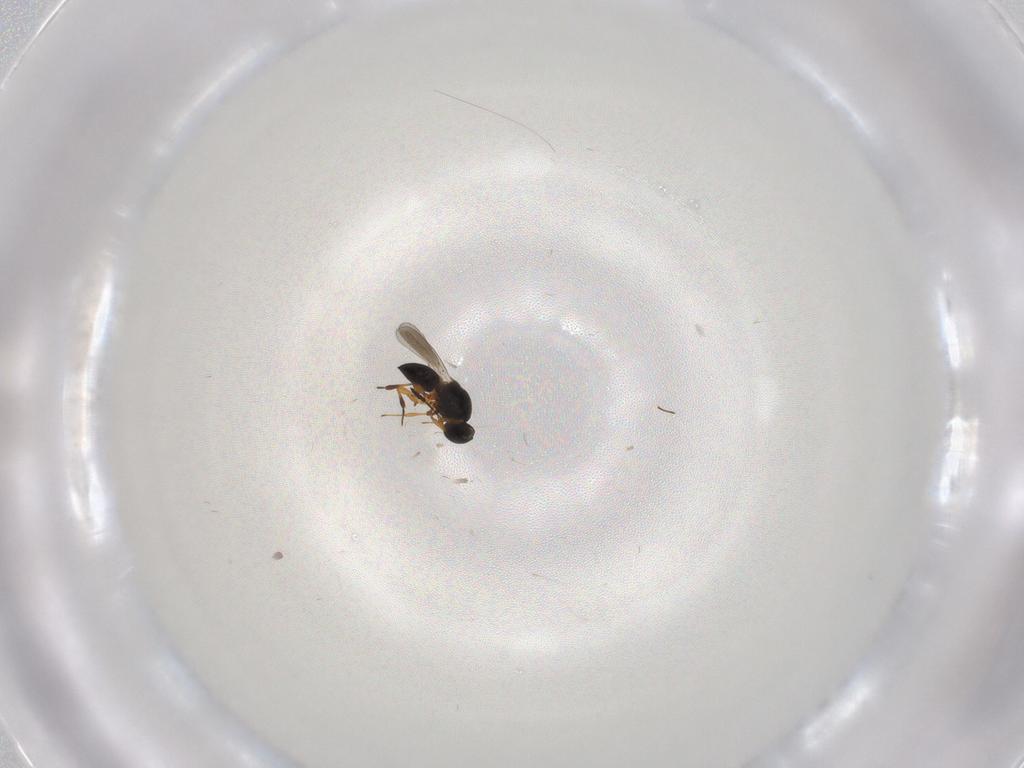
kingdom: Animalia
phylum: Arthropoda
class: Insecta
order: Hymenoptera
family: Platygastridae
